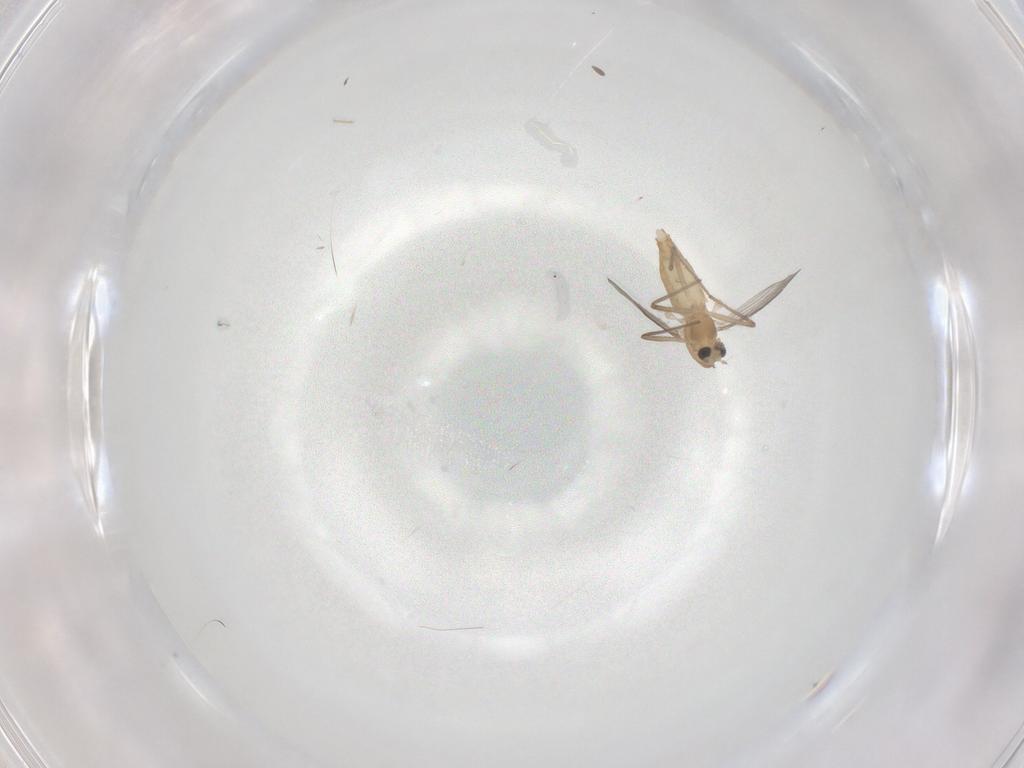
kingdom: Animalia
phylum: Arthropoda
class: Insecta
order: Diptera
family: Chironomidae
